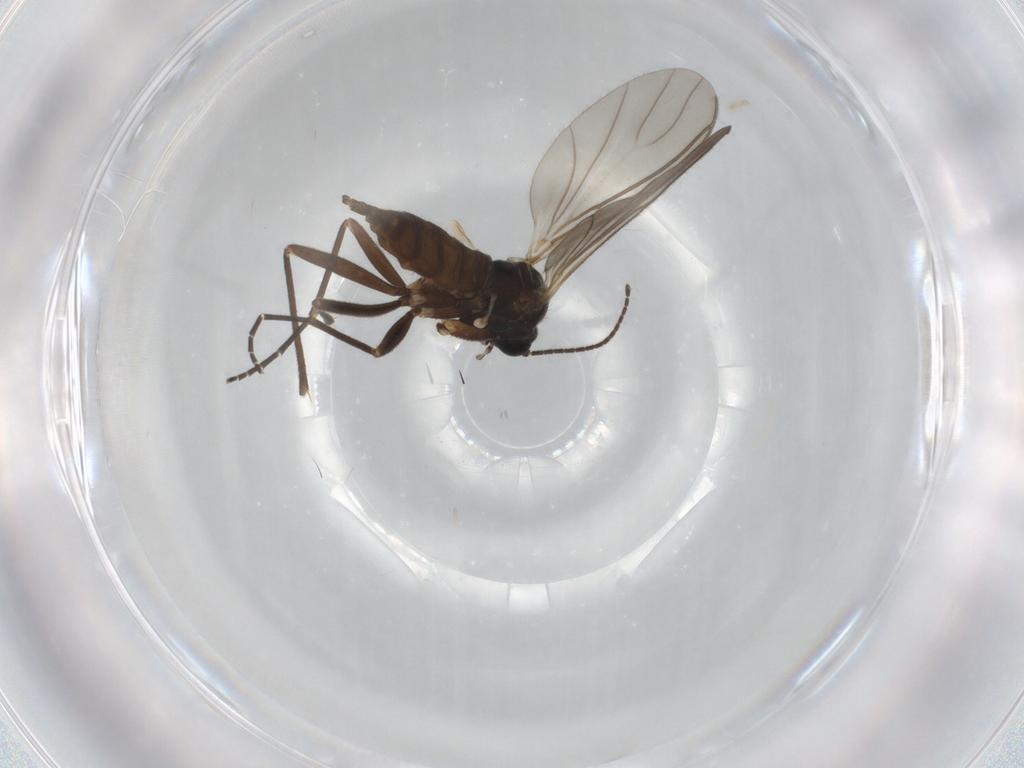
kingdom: Animalia
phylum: Arthropoda
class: Insecta
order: Diptera
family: Sciaridae
